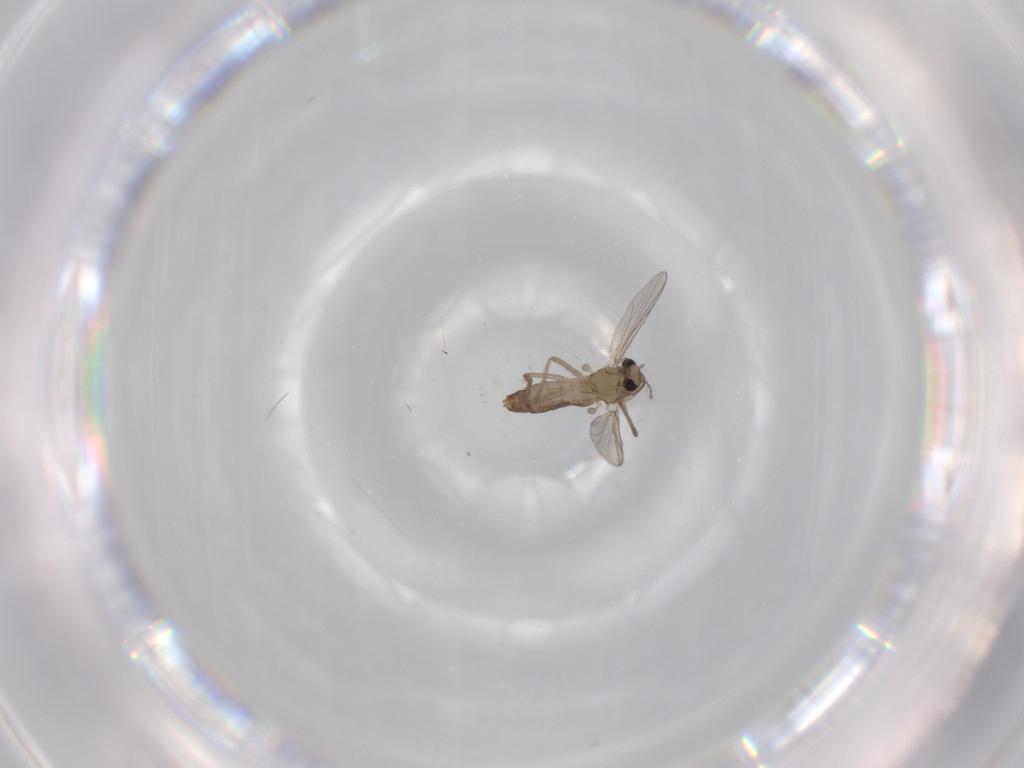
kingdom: Animalia
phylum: Arthropoda
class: Insecta
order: Diptera
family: Chironomidae
